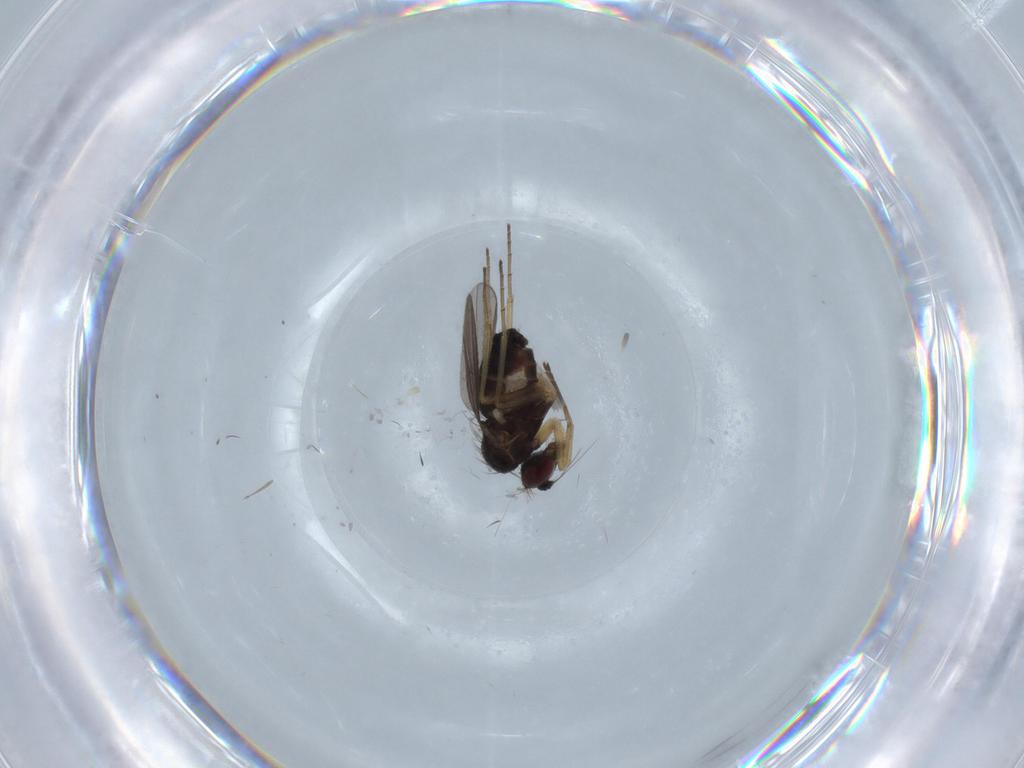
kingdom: Animalia
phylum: Arthropoda
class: Insecta
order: Diptera
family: Dolichopodidae
